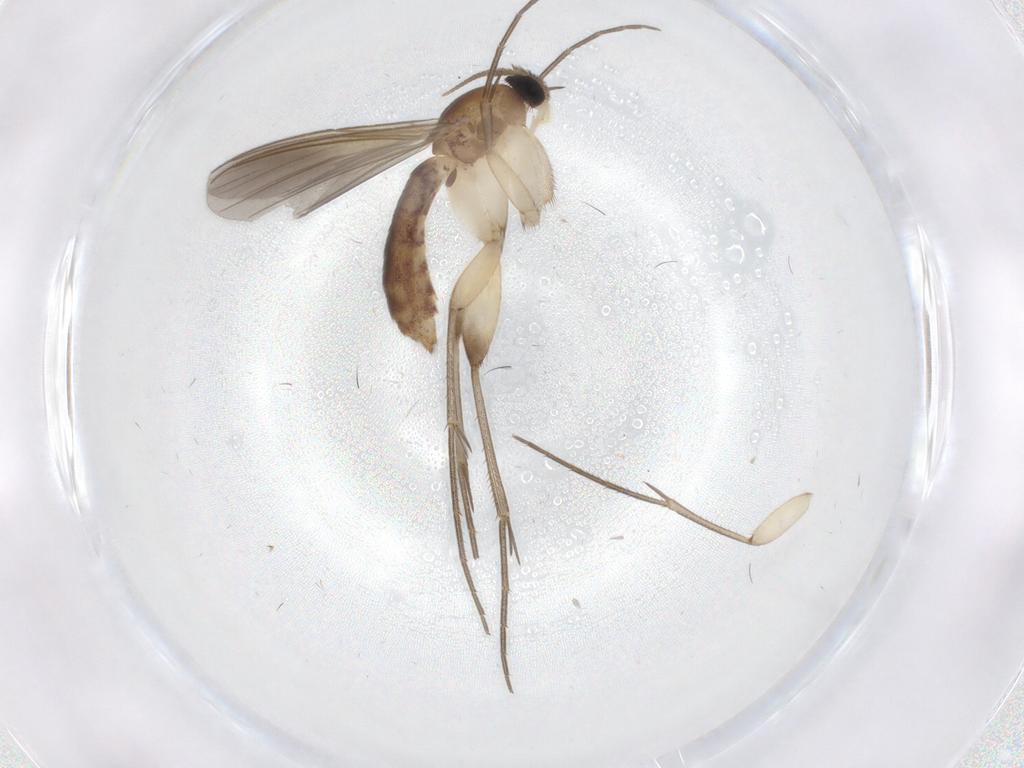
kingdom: Animalia
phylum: Arthropoda
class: Insecta
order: Diptera
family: Mycetophilidae
